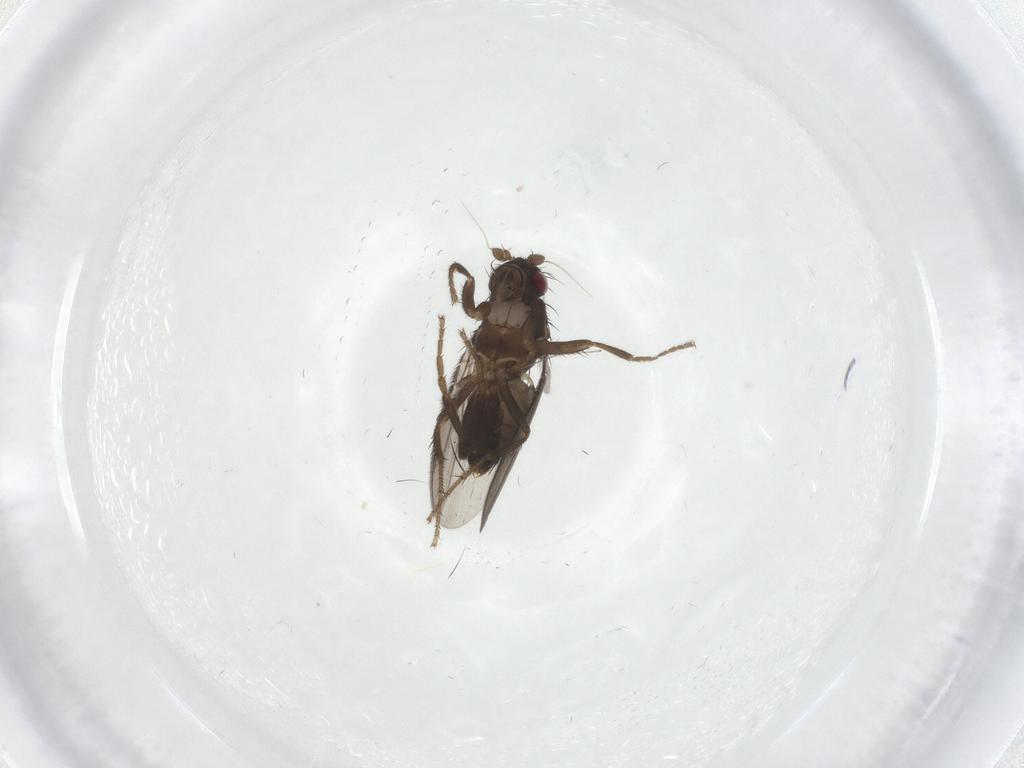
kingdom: Animalia
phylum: Arthropoda
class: Insecta
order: Diptera
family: Sphaeroceridae
